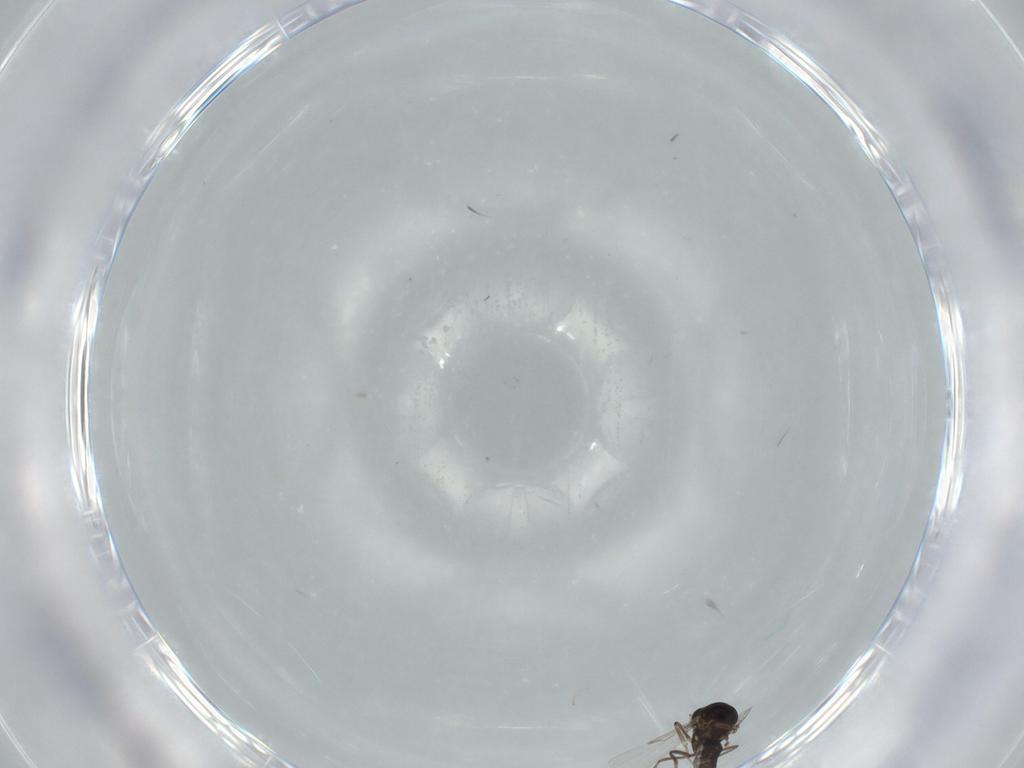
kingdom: Animalia
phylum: Arthropoda
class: Insecta
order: Diptera
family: Ceratopogonidae
